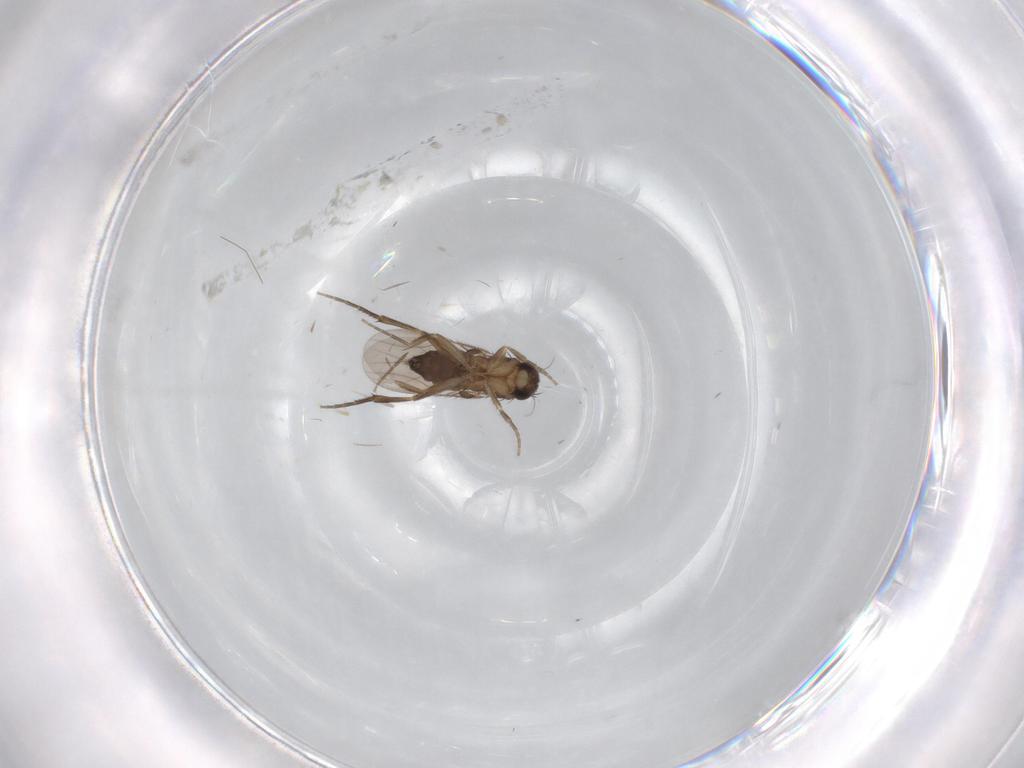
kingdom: Animalia
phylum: Arthropoda
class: Insecta
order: Diptera
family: Phoridae
